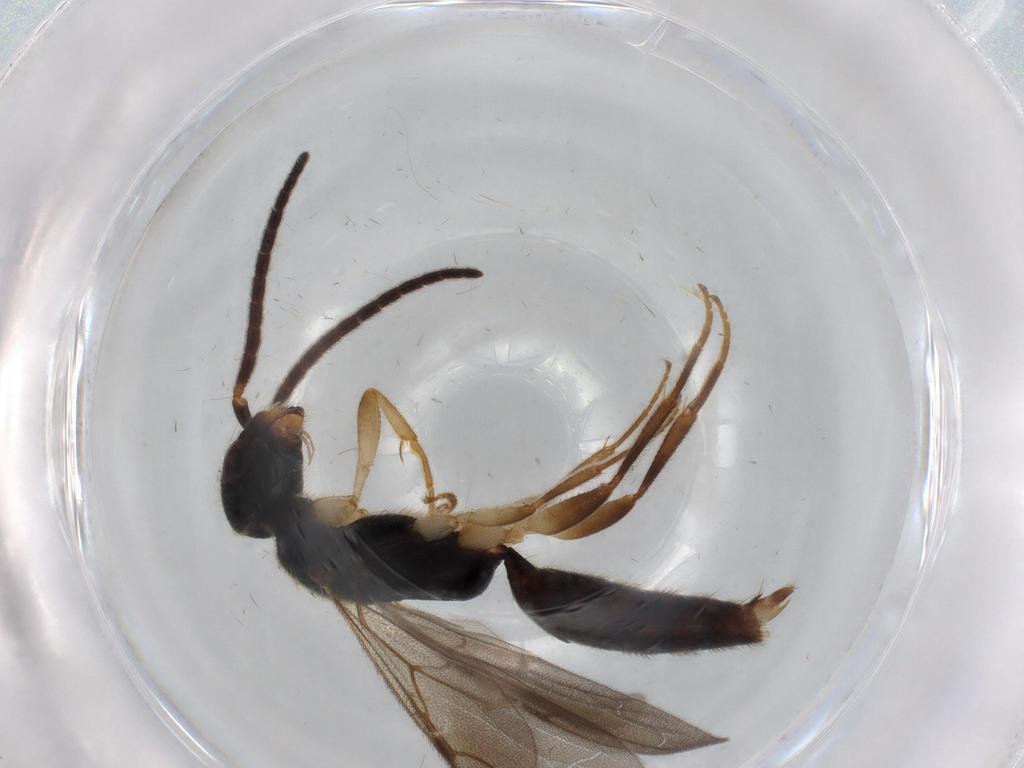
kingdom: Animalia
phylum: Arthropoda
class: Insecta
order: Hymenoptera
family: Bethylidae
